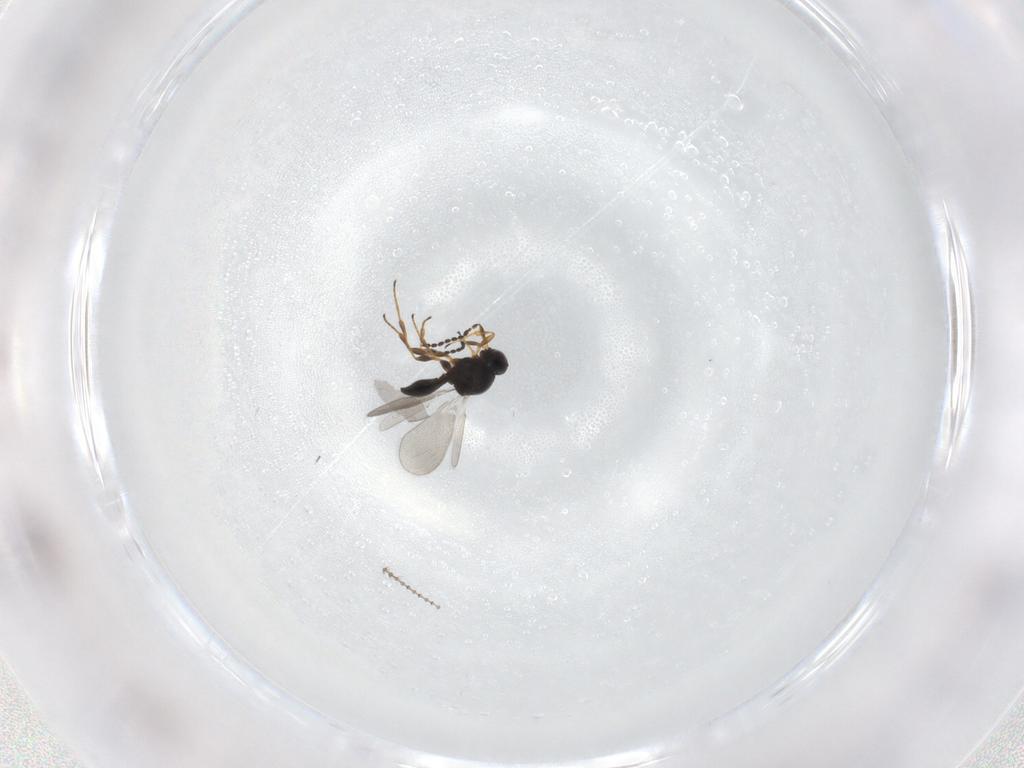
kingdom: Animalia
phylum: Arthropoda
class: Insecta
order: Hymenoptera
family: Platygastridae
